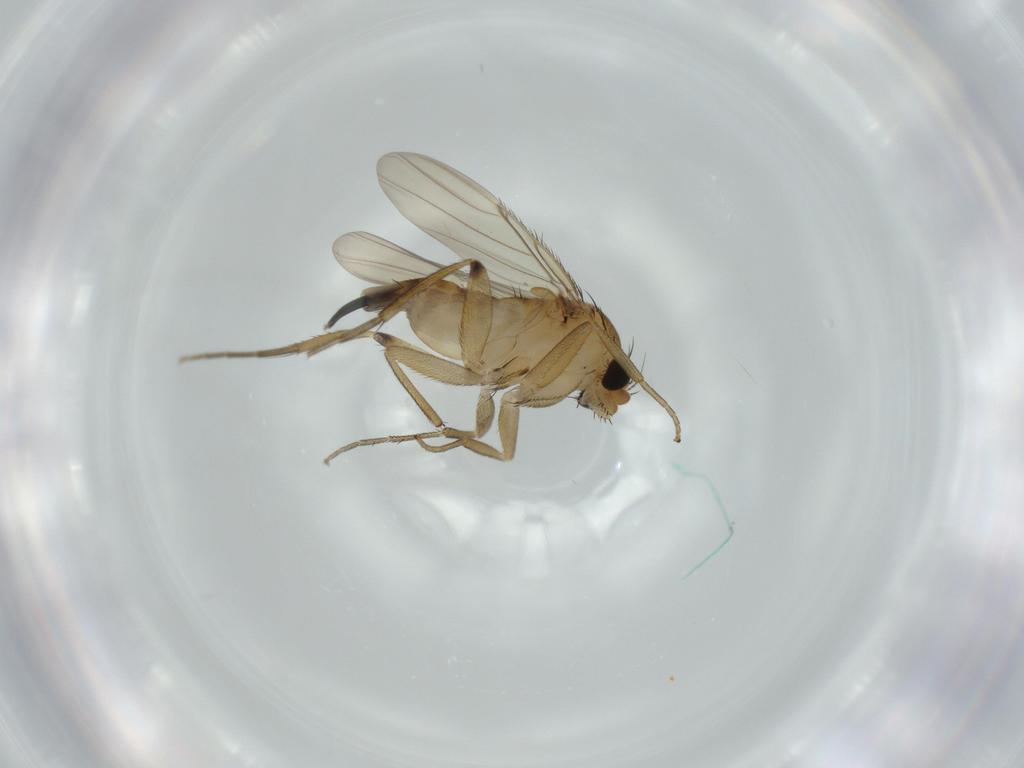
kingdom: Animalia
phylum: Arthropoda
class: Insecta
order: Diptera
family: Phoridae
